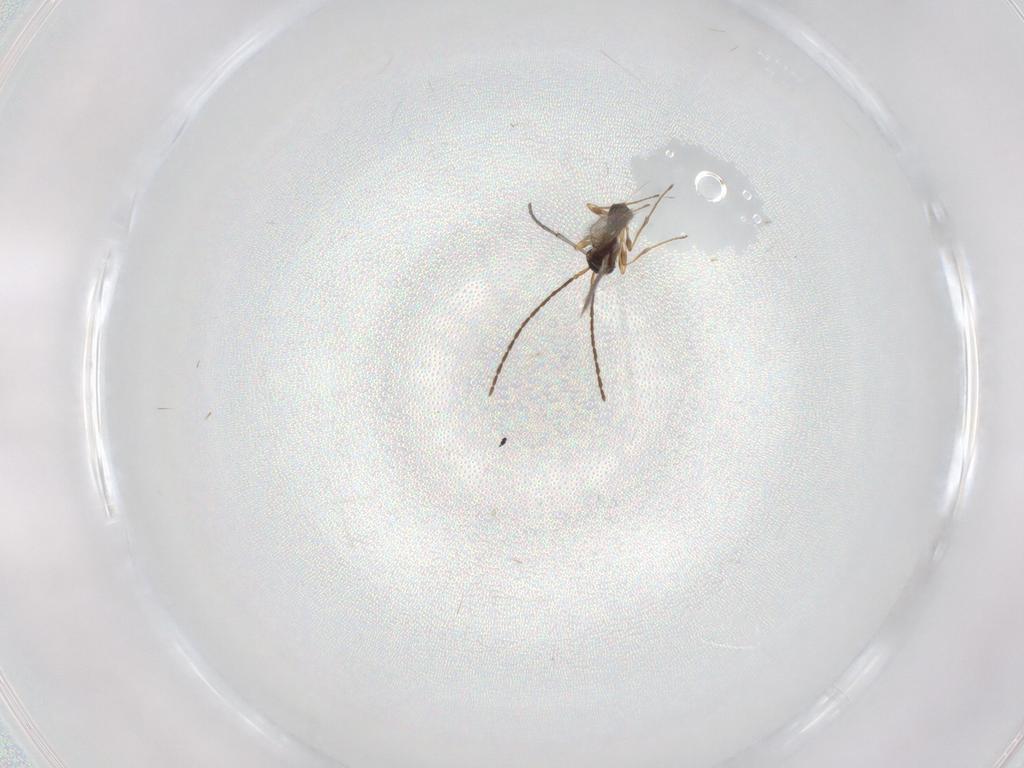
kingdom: Animalia
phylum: Arthropoda
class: Insecta
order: Hymenoptera
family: Diapriidae
